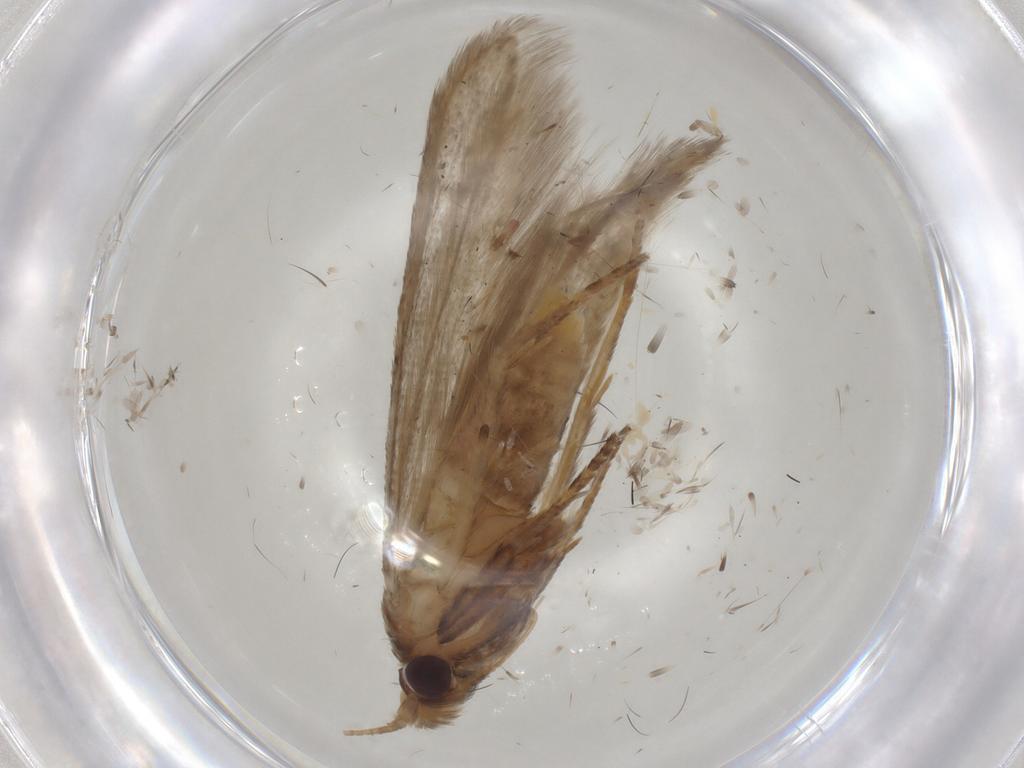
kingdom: Animalia
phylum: Arthropoda
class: Insecta
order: Lepidoptera
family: Coleophoridae
